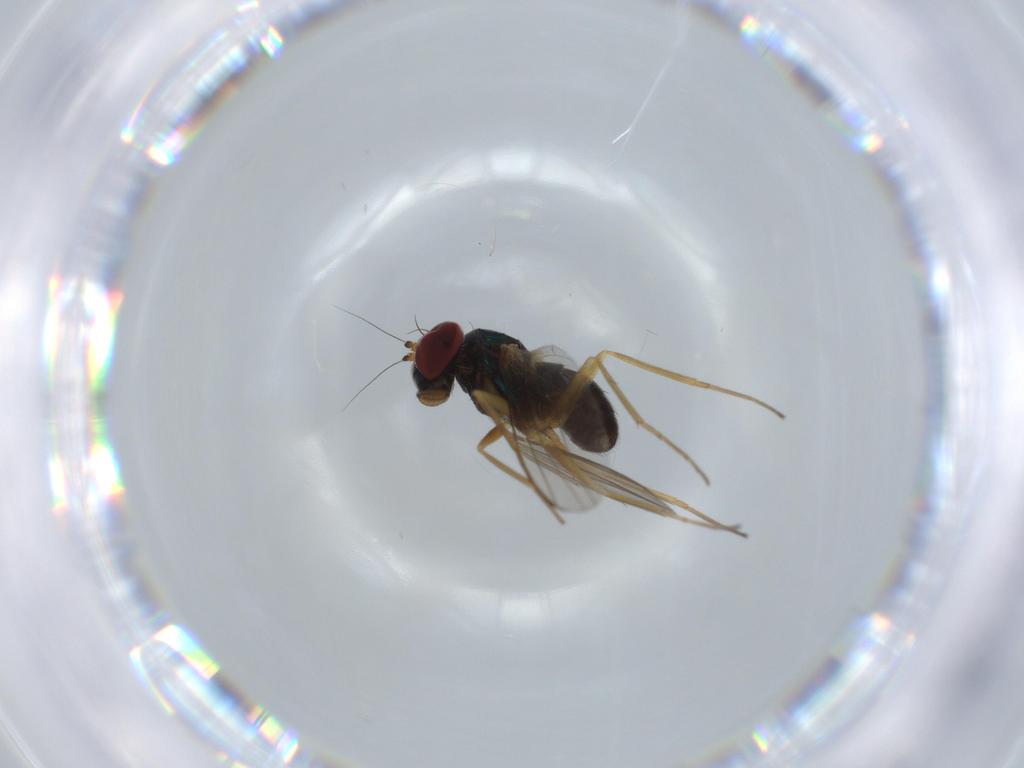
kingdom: Animalia
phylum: Arthropoda
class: Insecta
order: Diptera
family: Dolichopodidae
